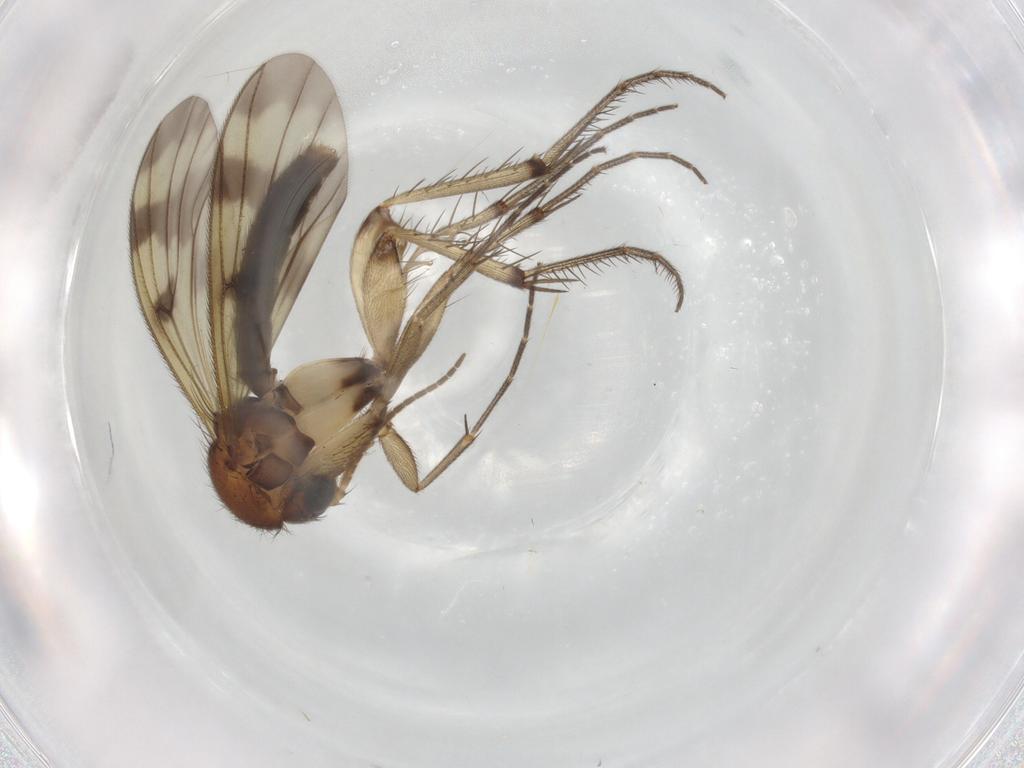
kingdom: Animalia
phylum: Arthropoda
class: Insecta
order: Diptera
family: Mycetophilidae
